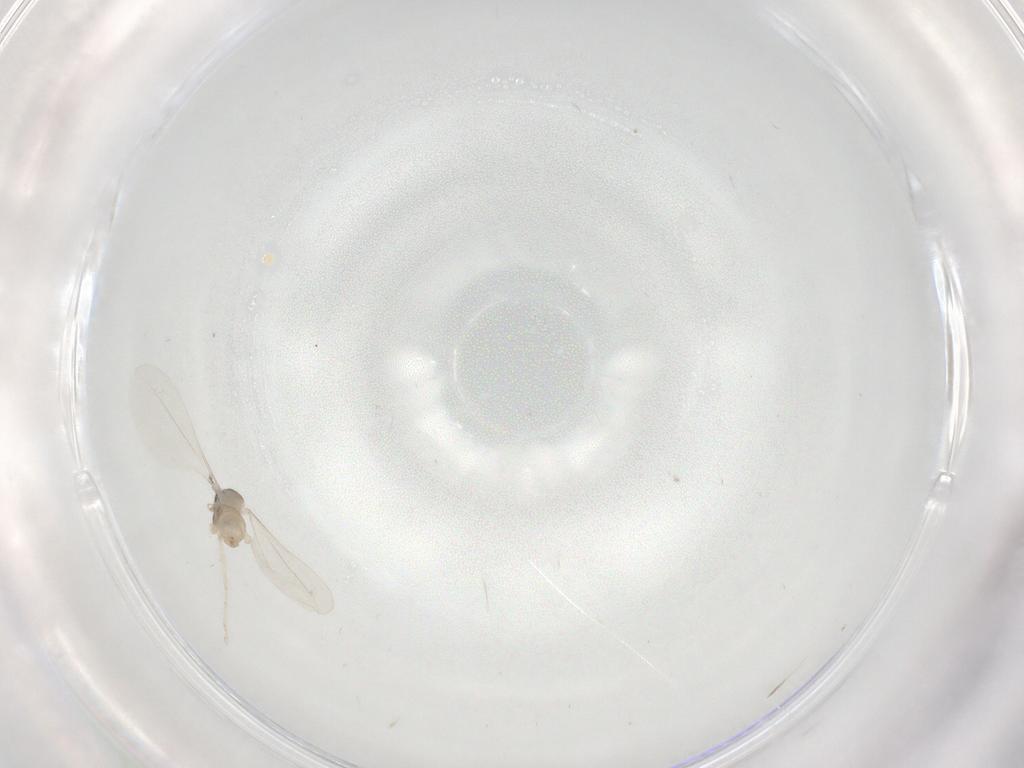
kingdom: Animalia
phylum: Arthropoda
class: Insecta
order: Diptera
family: Cecidomyiidae
